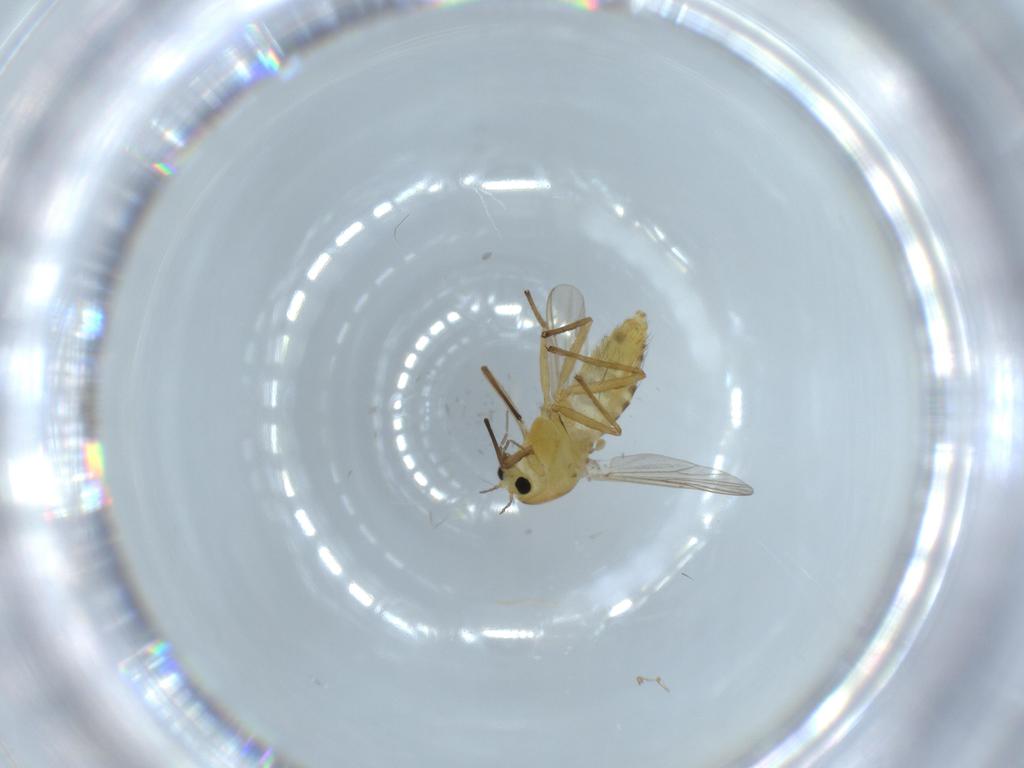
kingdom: Animalia
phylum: Arthropoda
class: Insecta
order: Diptera
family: Chironomidae
